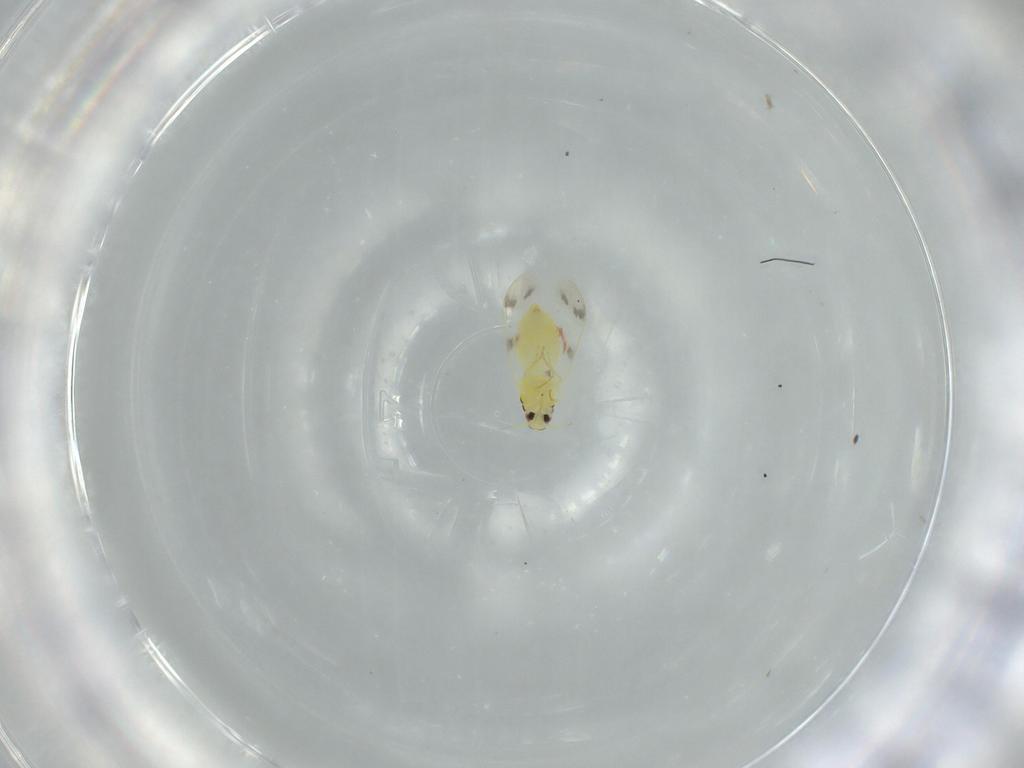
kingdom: Animalia
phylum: Arthropoda
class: Insecta
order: Hemiptera
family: Aleyrodidae
